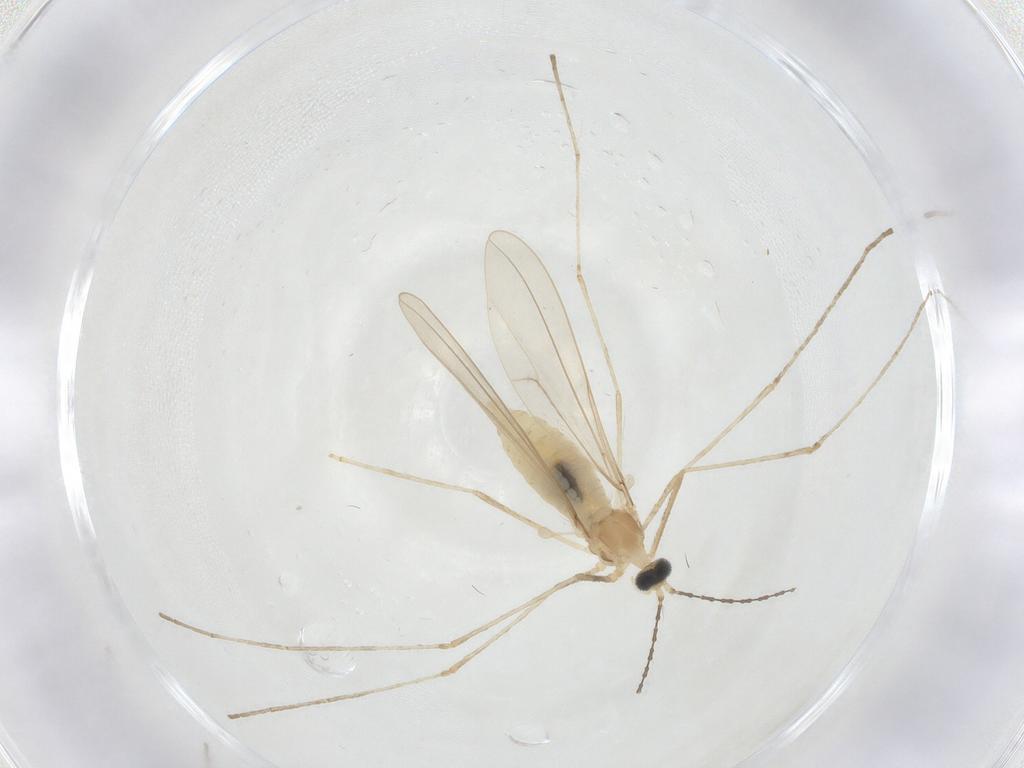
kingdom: Animalia
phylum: Arthropoda
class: Insecta
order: Diptera
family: Cecidomyiidae
